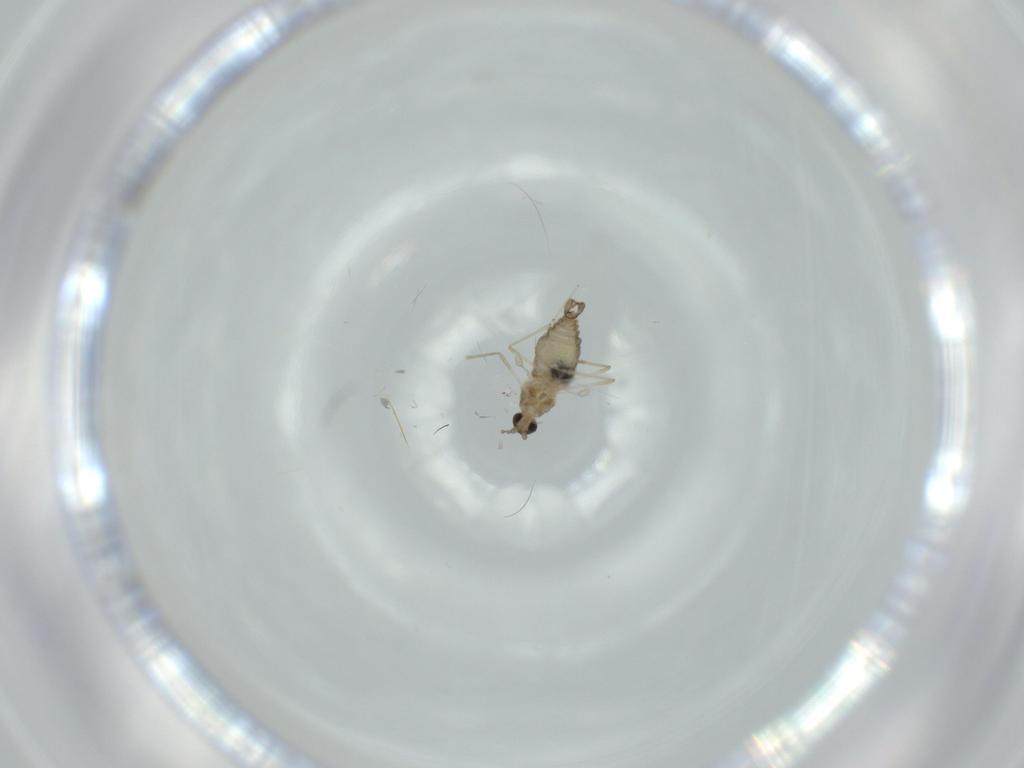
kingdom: Animalia
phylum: Arthropoda
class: Insecta
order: Diptera
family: Cecidomyiidae
